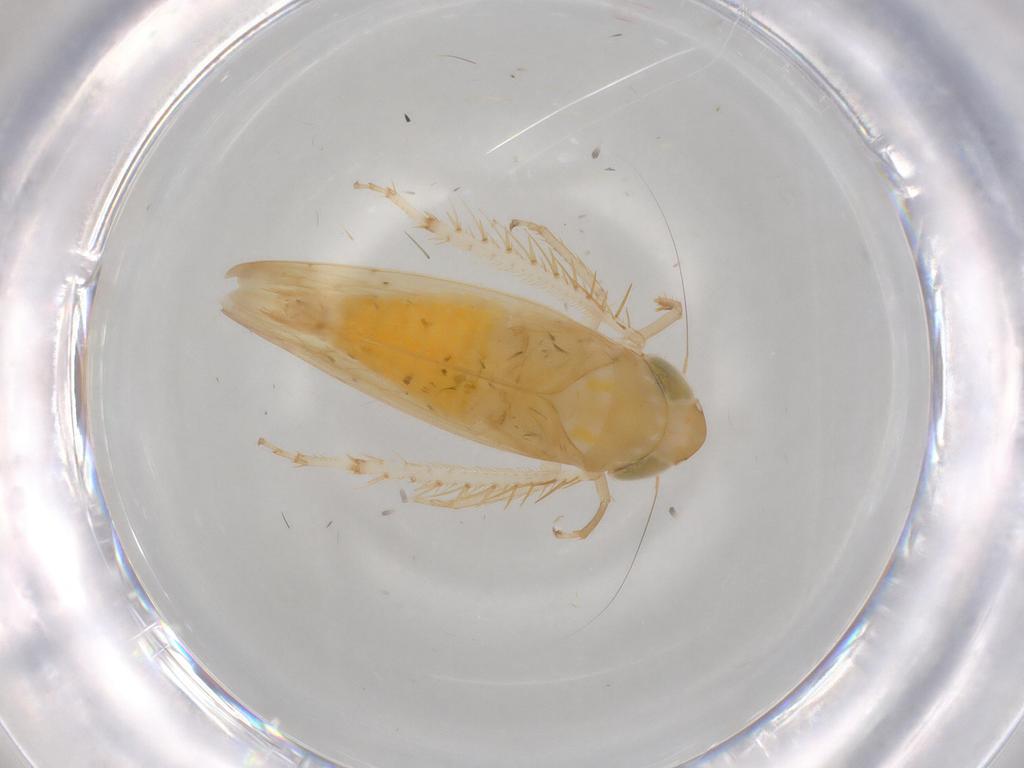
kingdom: Animalia
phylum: Arthropoda
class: Insecta
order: Hemiptera
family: Cicadellidae
